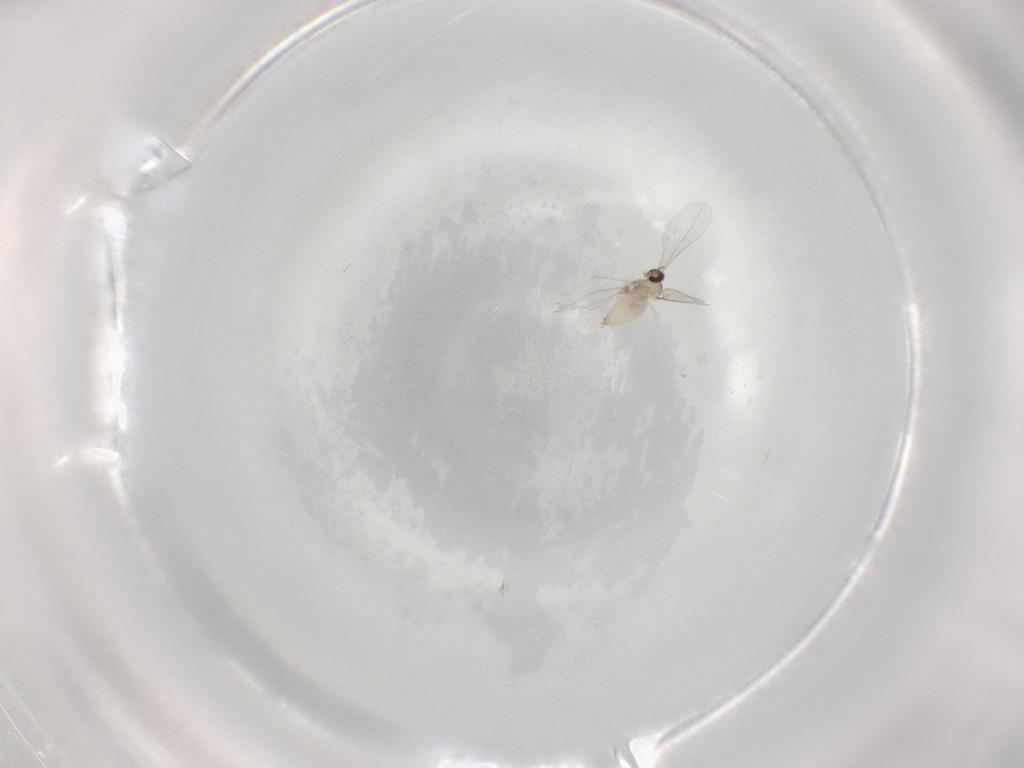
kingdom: Animalia
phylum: Arthropoda
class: Insecta
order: Diptera
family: Cecidomyiidae
